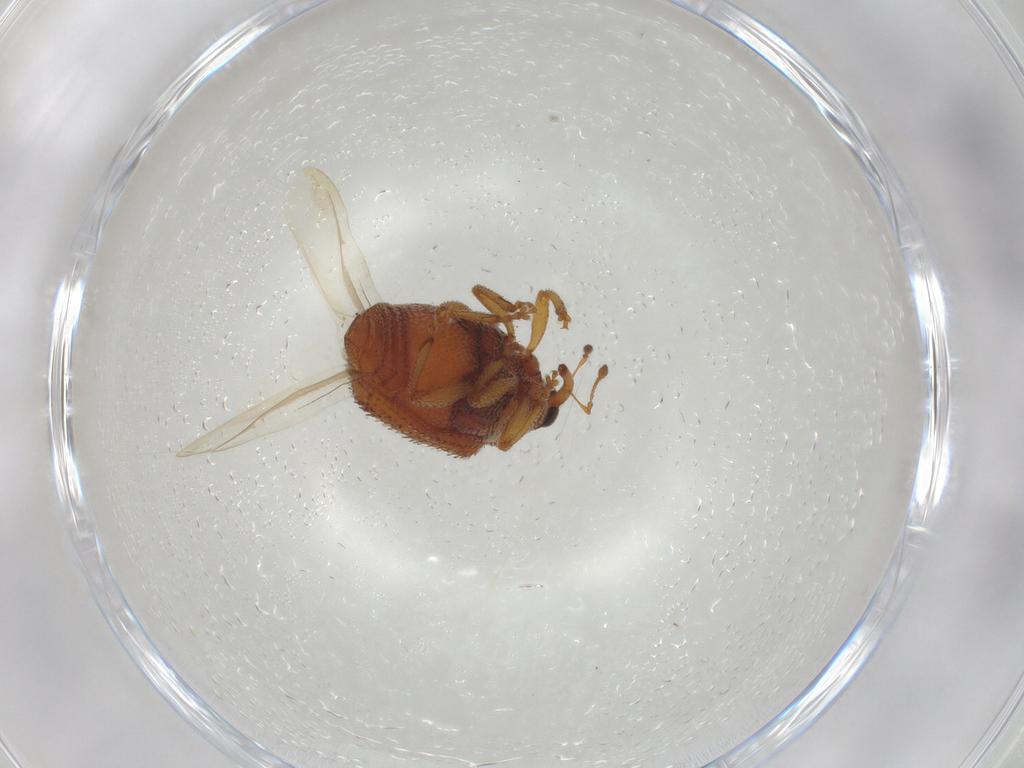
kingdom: Animalia
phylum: Arthropoda
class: Insecta
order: Coleoptera
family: Curculionidae
